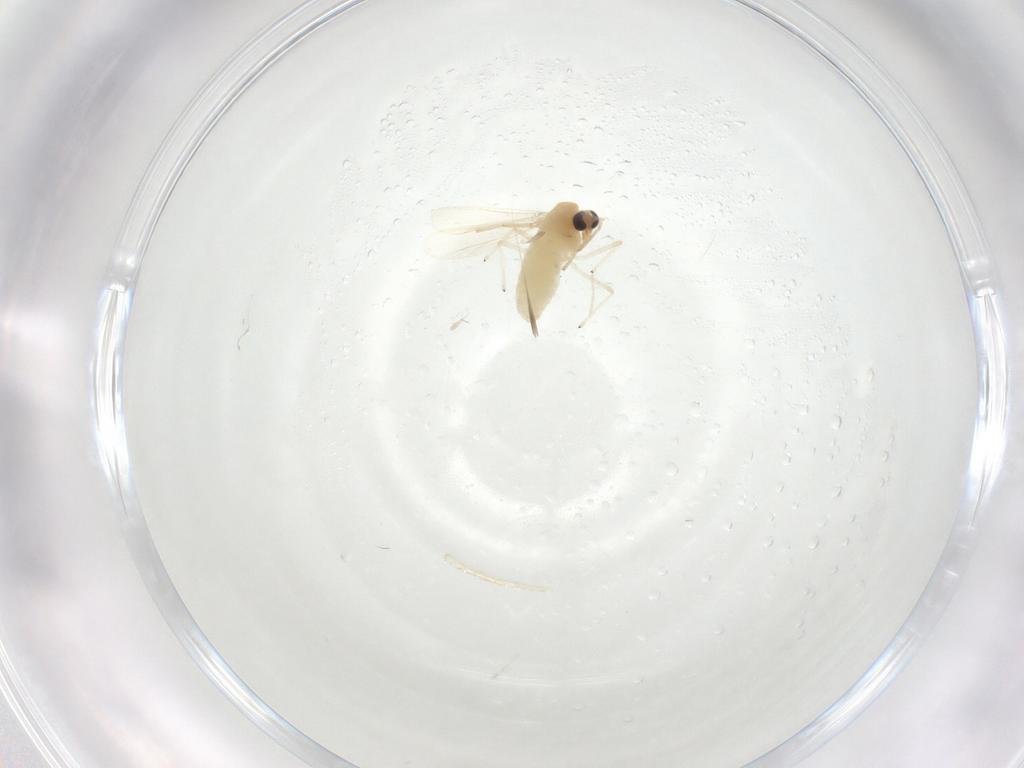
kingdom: Animalia
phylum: Arthropoda
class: Insecta
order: Diptera
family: Chironomidae
